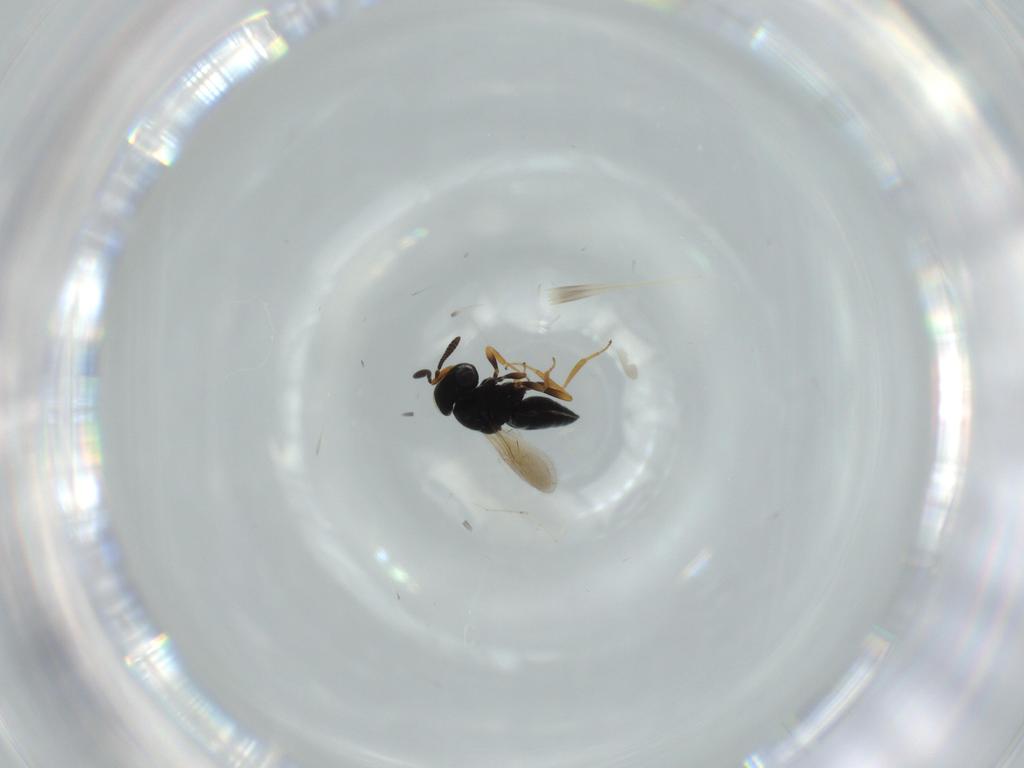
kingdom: Animalia
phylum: Arthropoda
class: Insecta
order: Hymenoptera
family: Scelionidae
